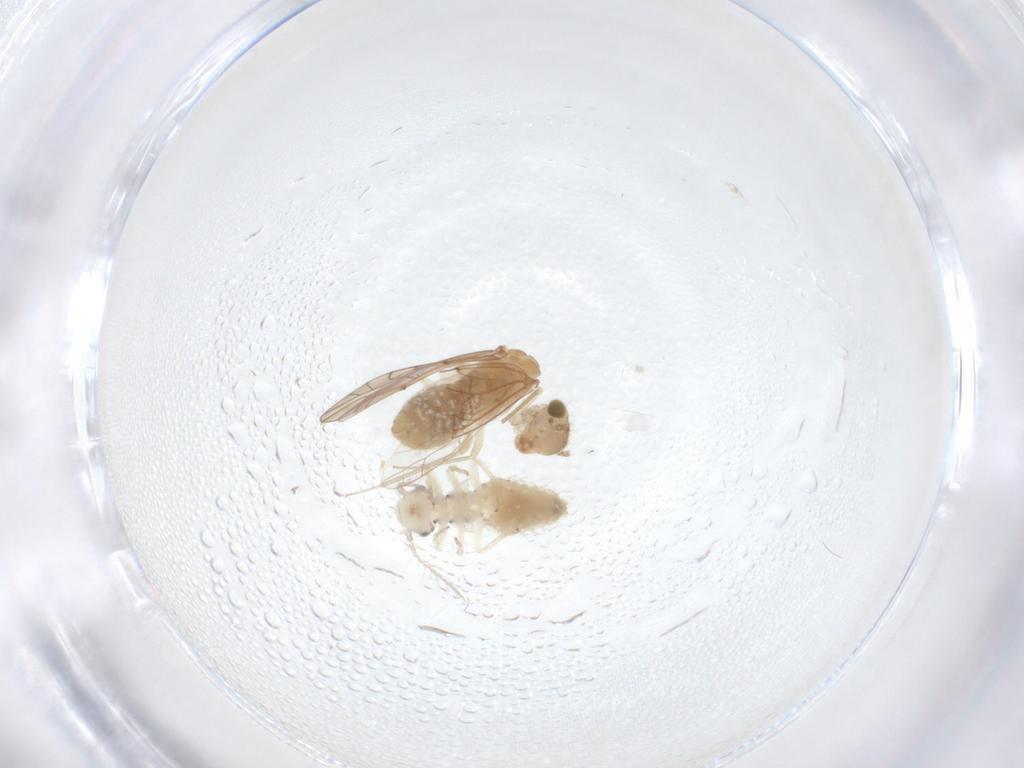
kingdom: Animalia
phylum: Arthropoda
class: Insecta
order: Psocodea
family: Lachesillidae
